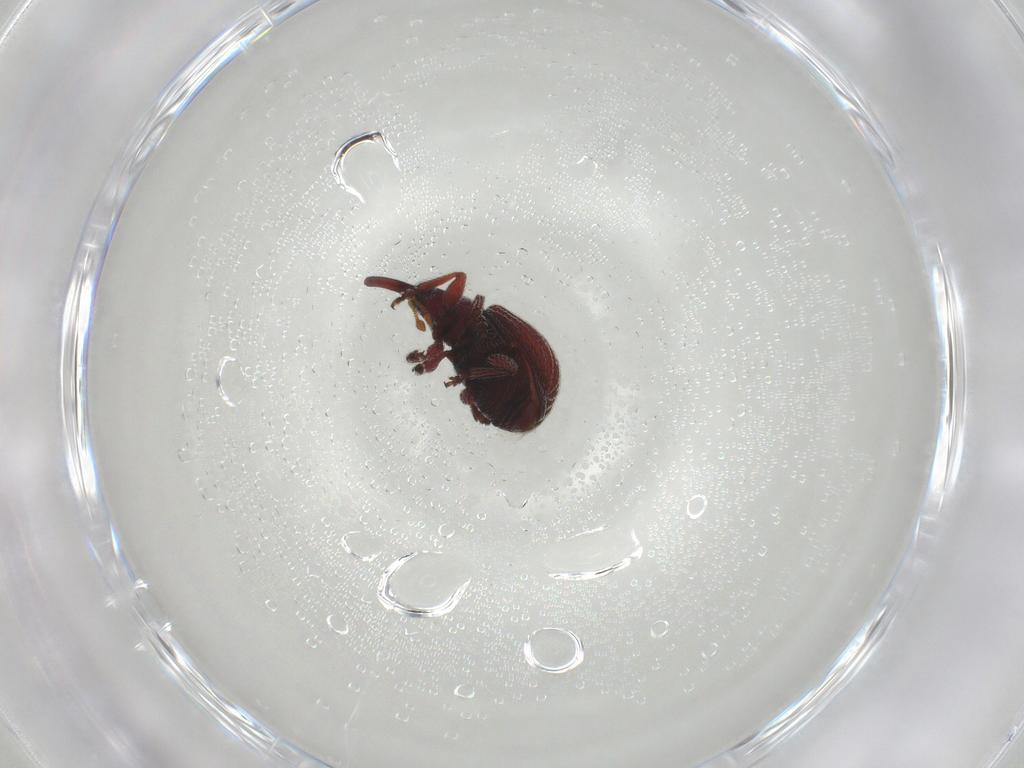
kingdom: Animalia
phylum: Arthropoda
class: Insecta
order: Coleoptera
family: Brentidae
